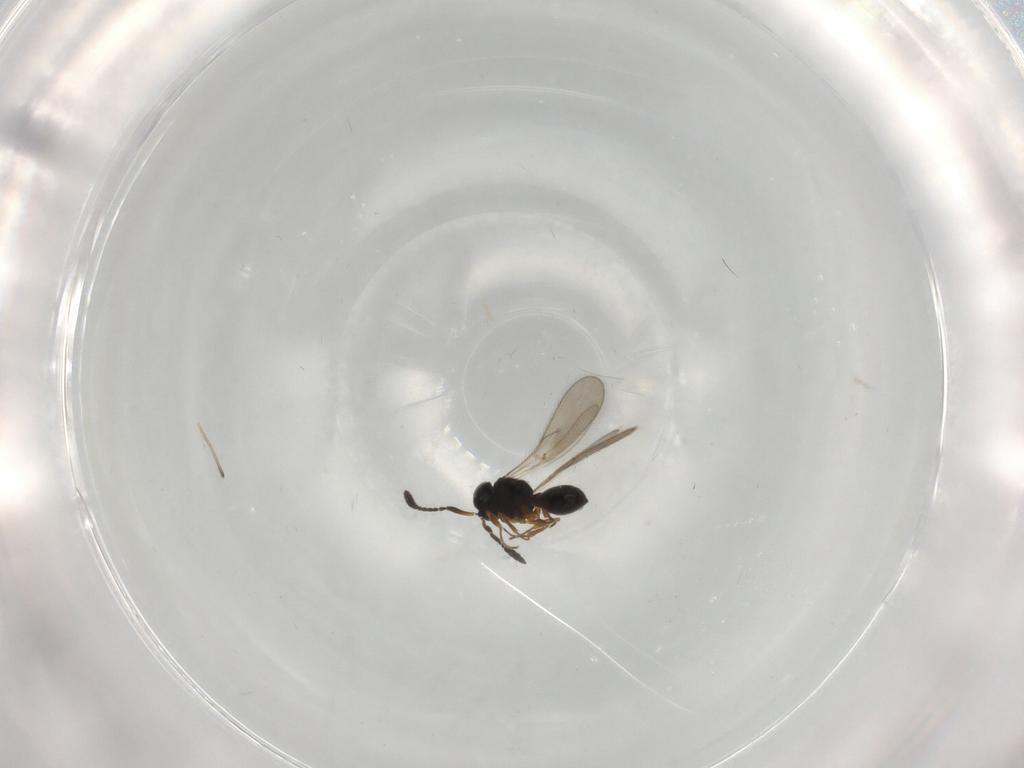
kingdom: Animalia
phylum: Arthropoda
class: Insecta
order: Hymenoptera
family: Scelionidae
